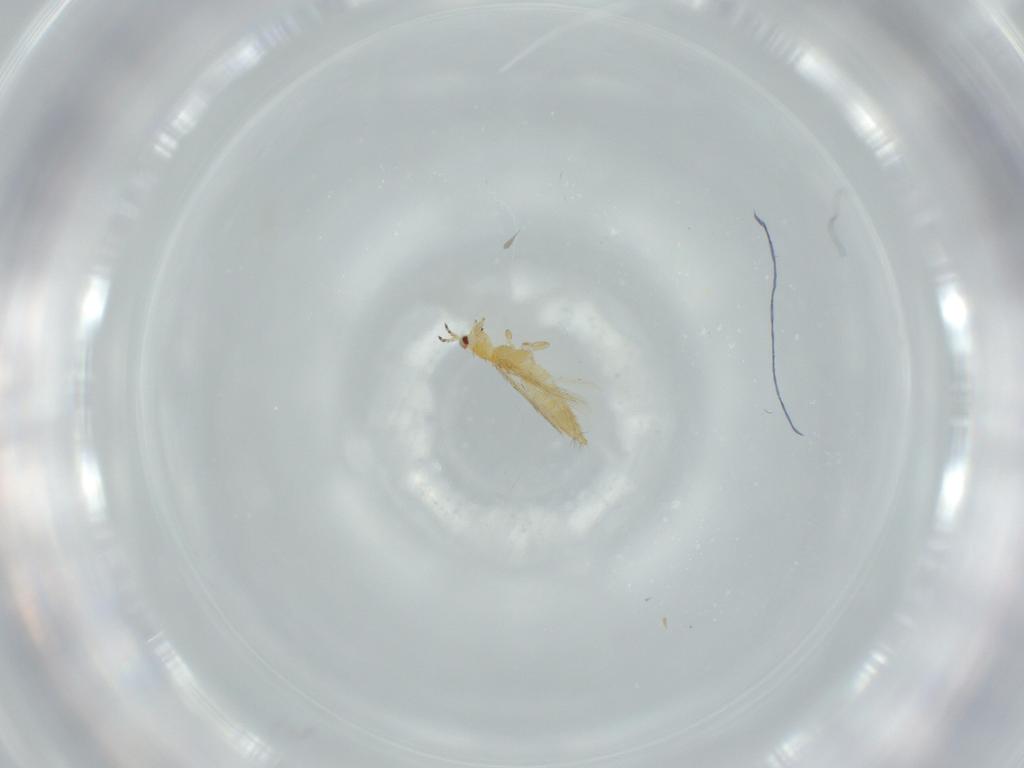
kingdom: Animalia
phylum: Arthropoda
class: Insecta
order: Thysanoptera
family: Thripidae
